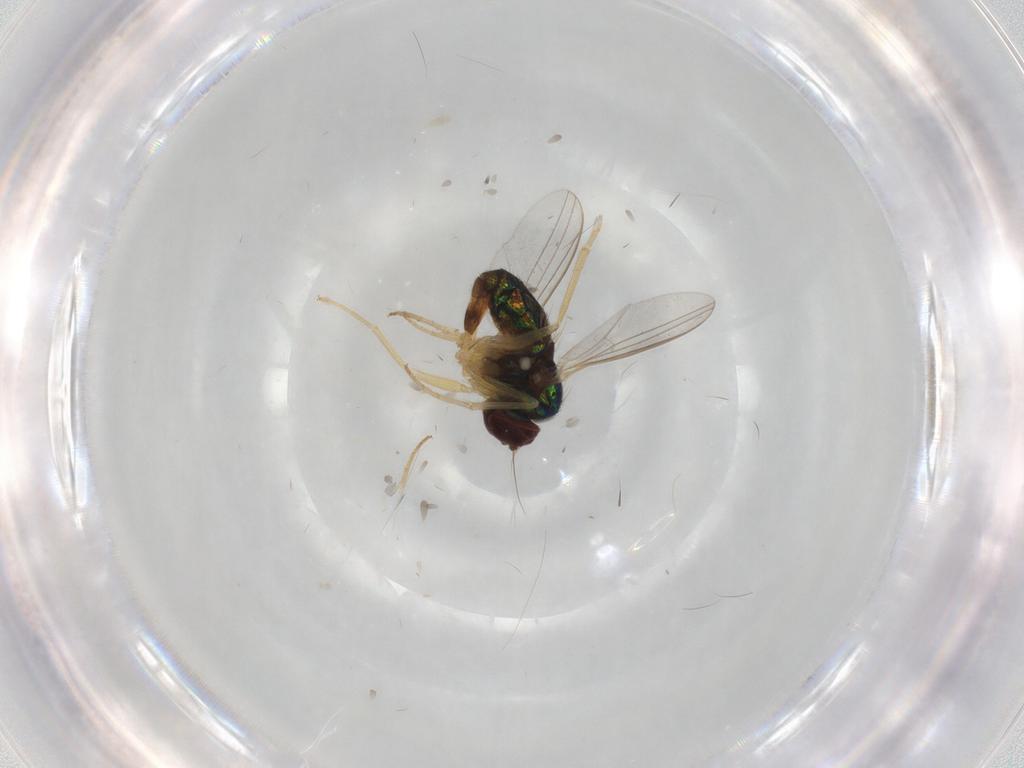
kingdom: Animalia
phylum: Arthropoda
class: Insecta
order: Diptera
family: Dolichopodidae
